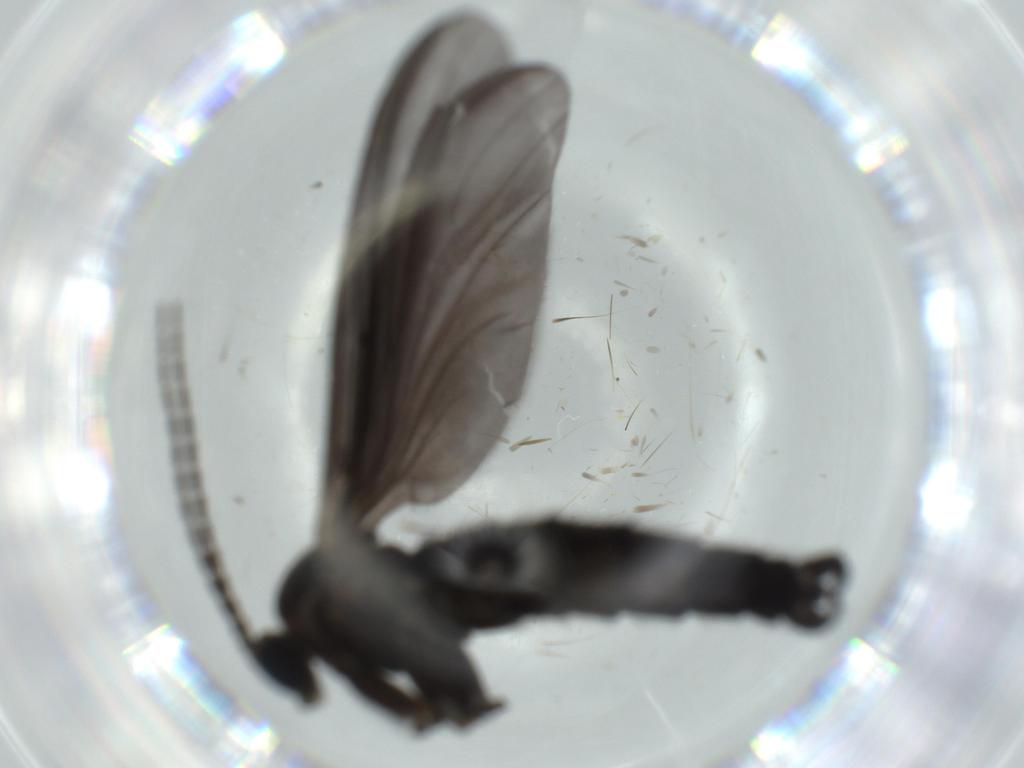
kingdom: Animalia
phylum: Arthropoda
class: Insecta
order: Diptera
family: Sciaridae
